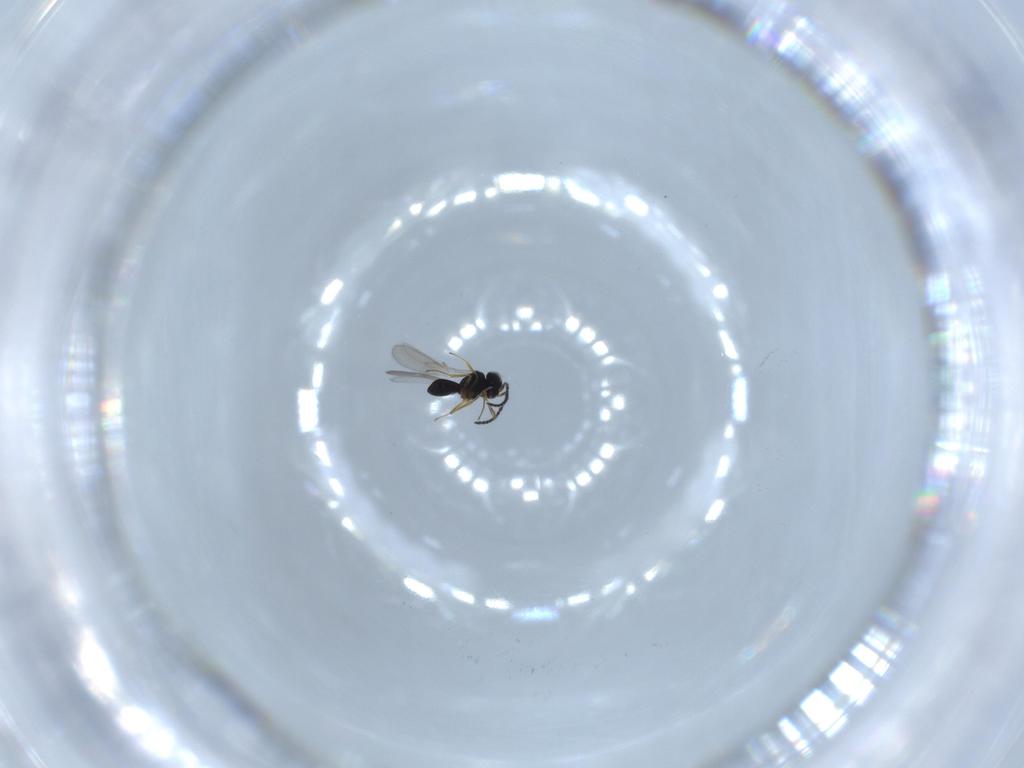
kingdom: Animalia
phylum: Arthropoda
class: Insecta
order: Hymenoptera
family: Scelionidae
